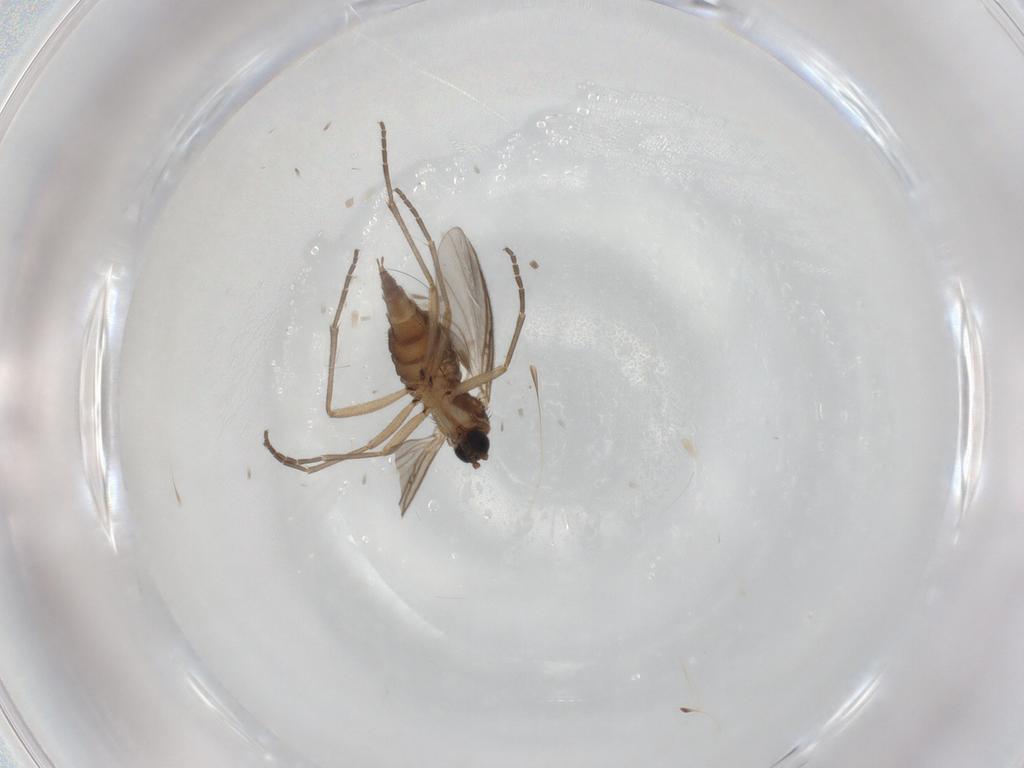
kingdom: Animalia
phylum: Arthropoda
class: Insecta
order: Diptera
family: Sciaridae
